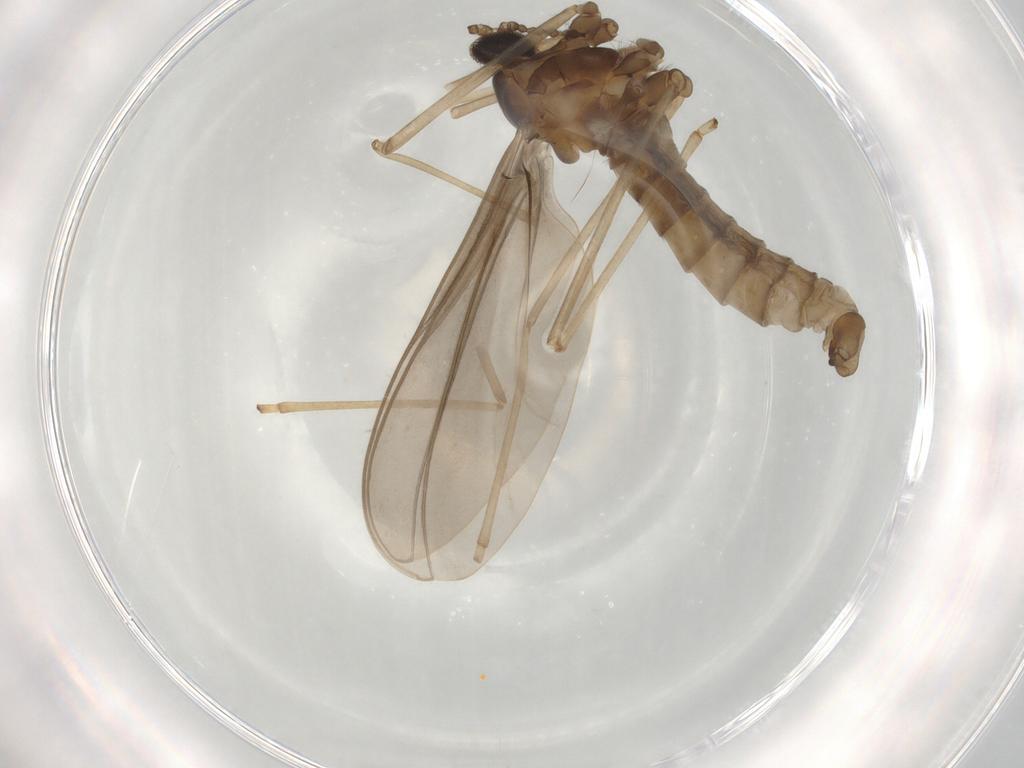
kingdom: Animalia
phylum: Arthropoda
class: Insecta
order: Diptera
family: Cecidomyiidae
